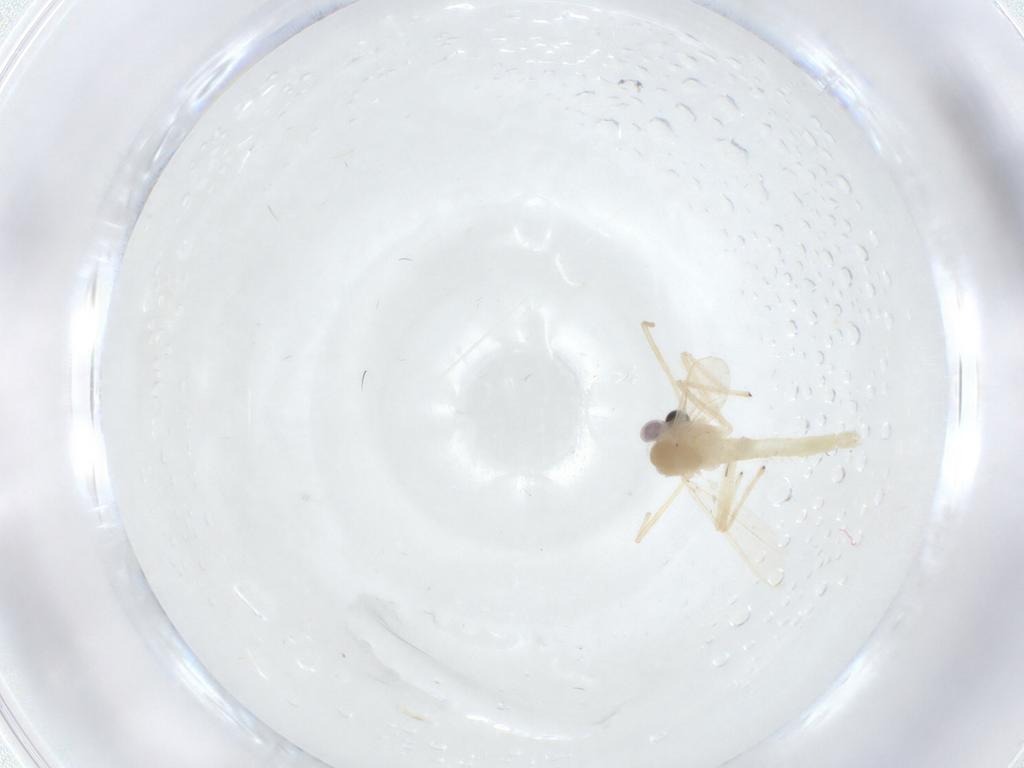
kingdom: Animalia
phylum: Arthropoda
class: Insecta
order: Diptera
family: Chironomidae
